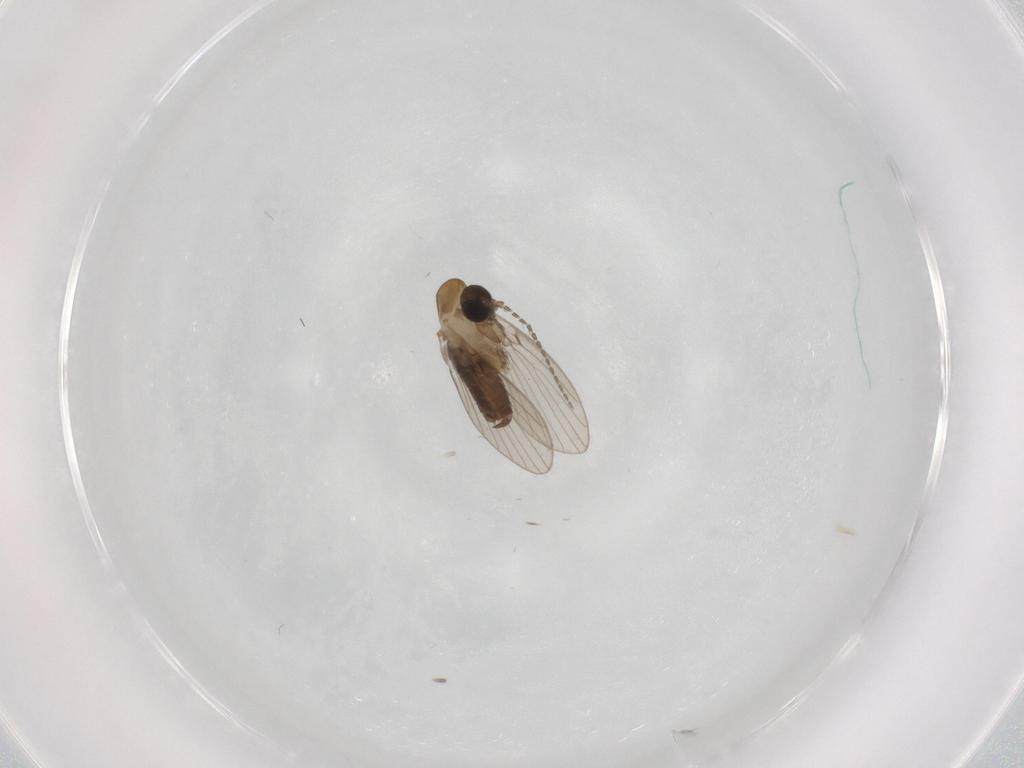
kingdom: Animalia
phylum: Arthropoda
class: Insecta
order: Diptera
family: Psychodidae
